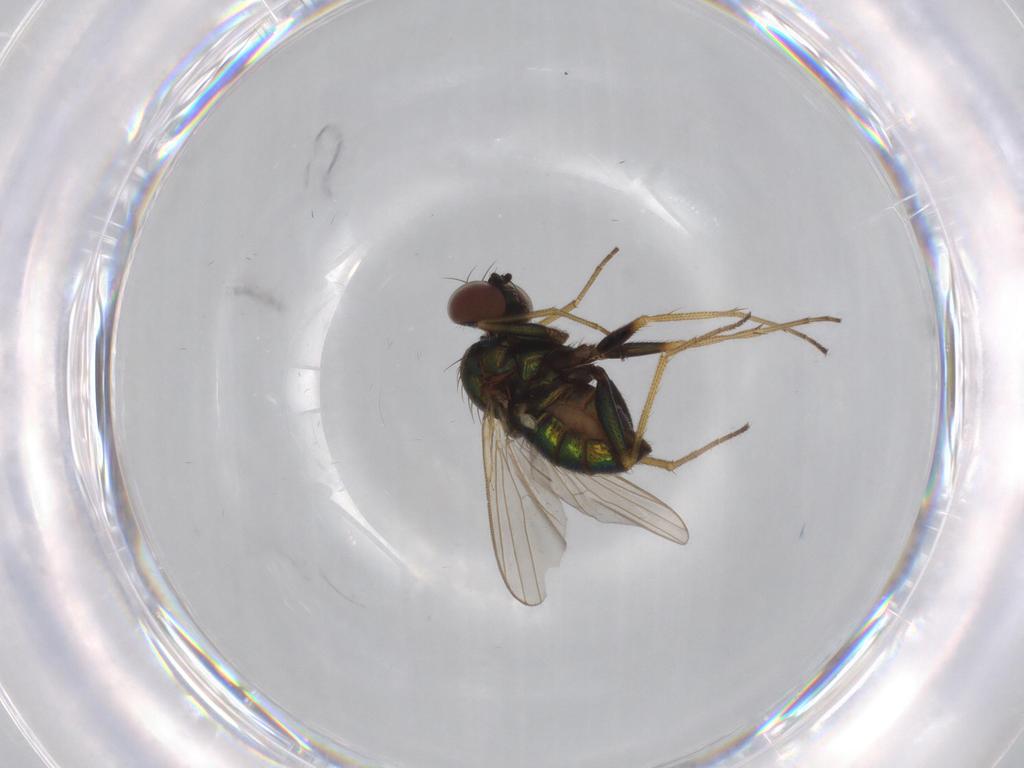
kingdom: Animalia
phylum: Arthropoda
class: Insecta
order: Diptera
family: Dolichopodidae
